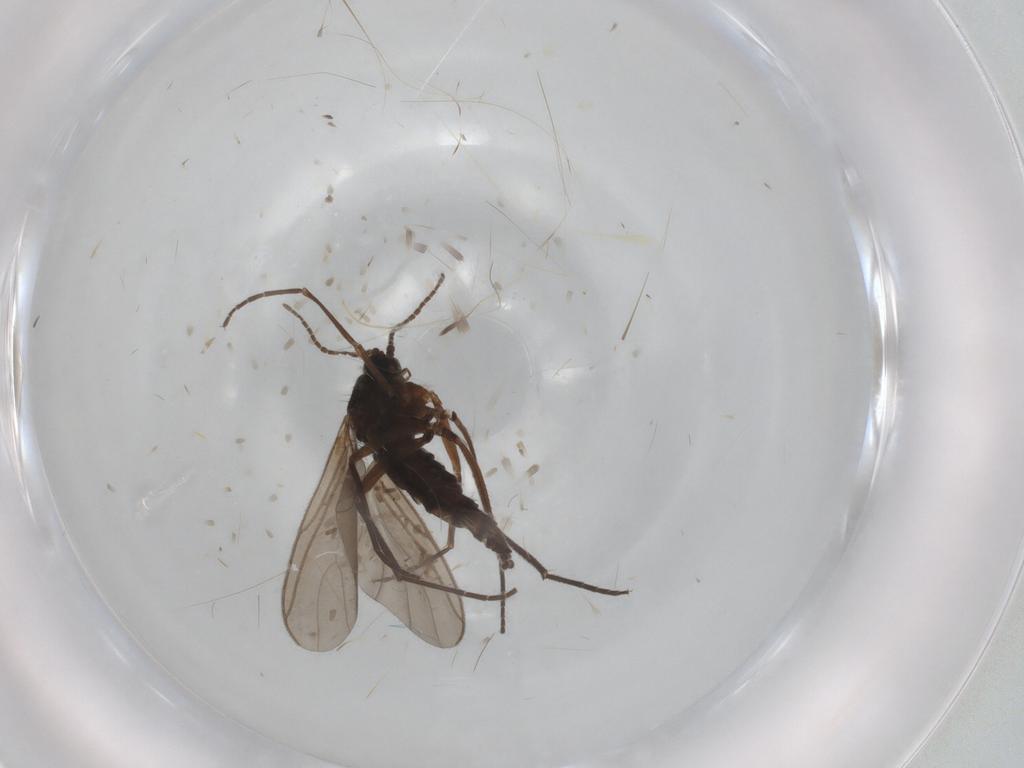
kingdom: Animalia
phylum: Arthropoda
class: Insecta
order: Diptera
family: Sciaridae
